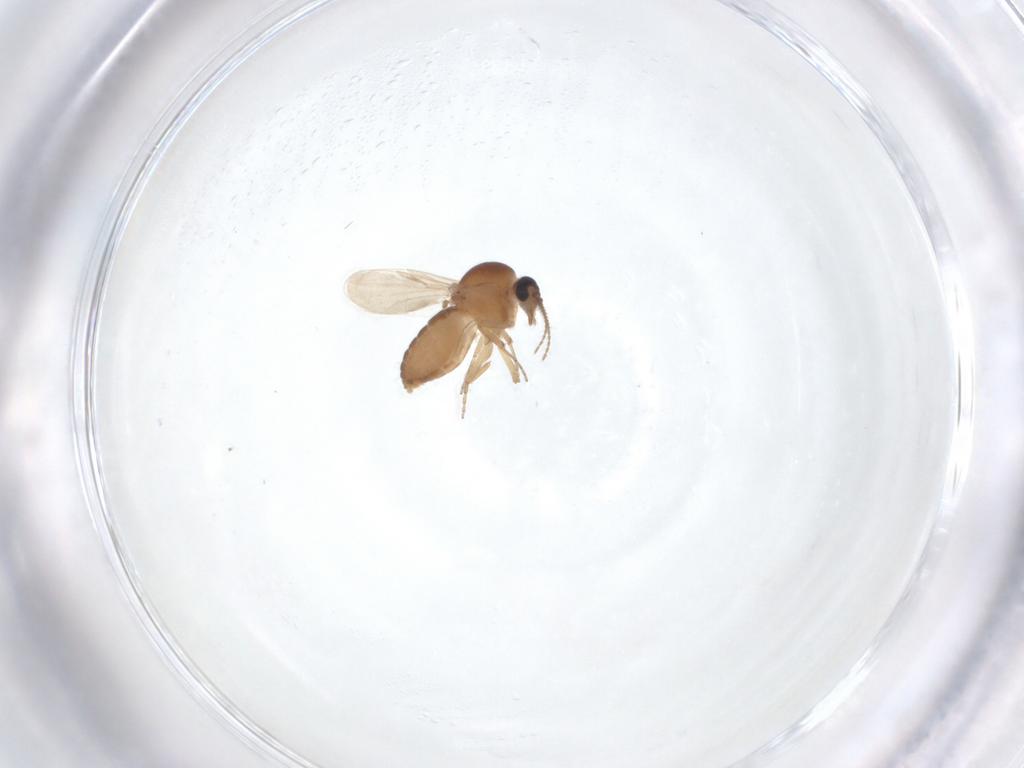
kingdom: Animalia
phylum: Arthropoda
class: Insecta
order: Diptera
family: Ceratopogonidae
